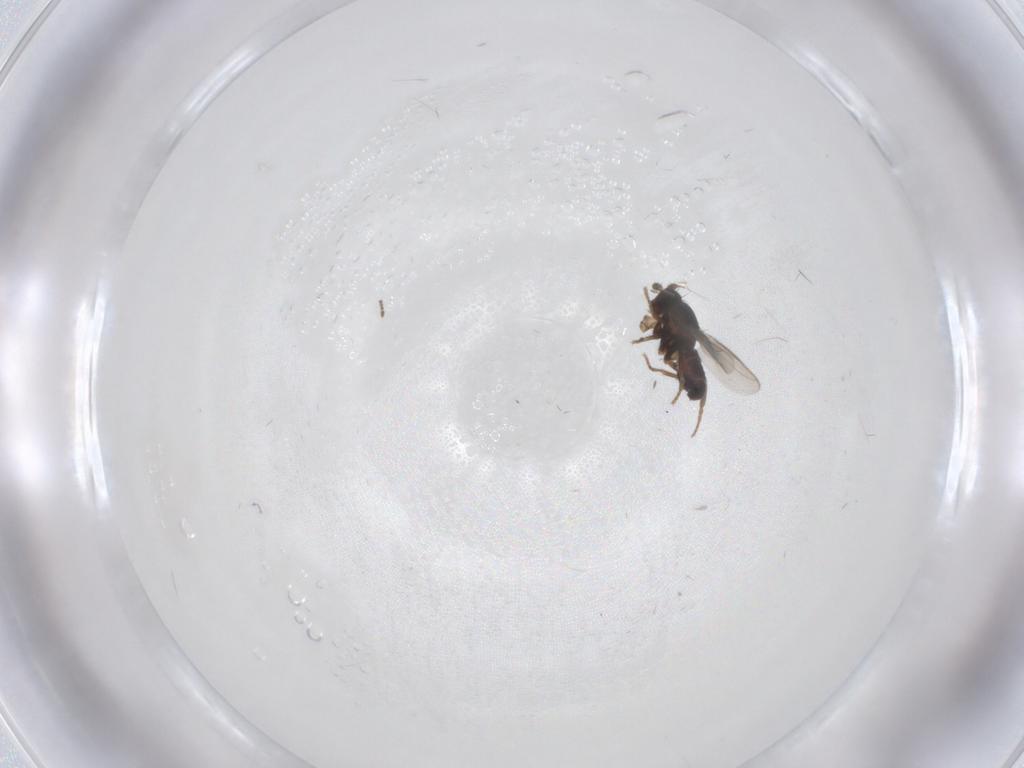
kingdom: Animalia
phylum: Arthropoda
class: Insecta
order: Diptera
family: Sphaeroceridae
